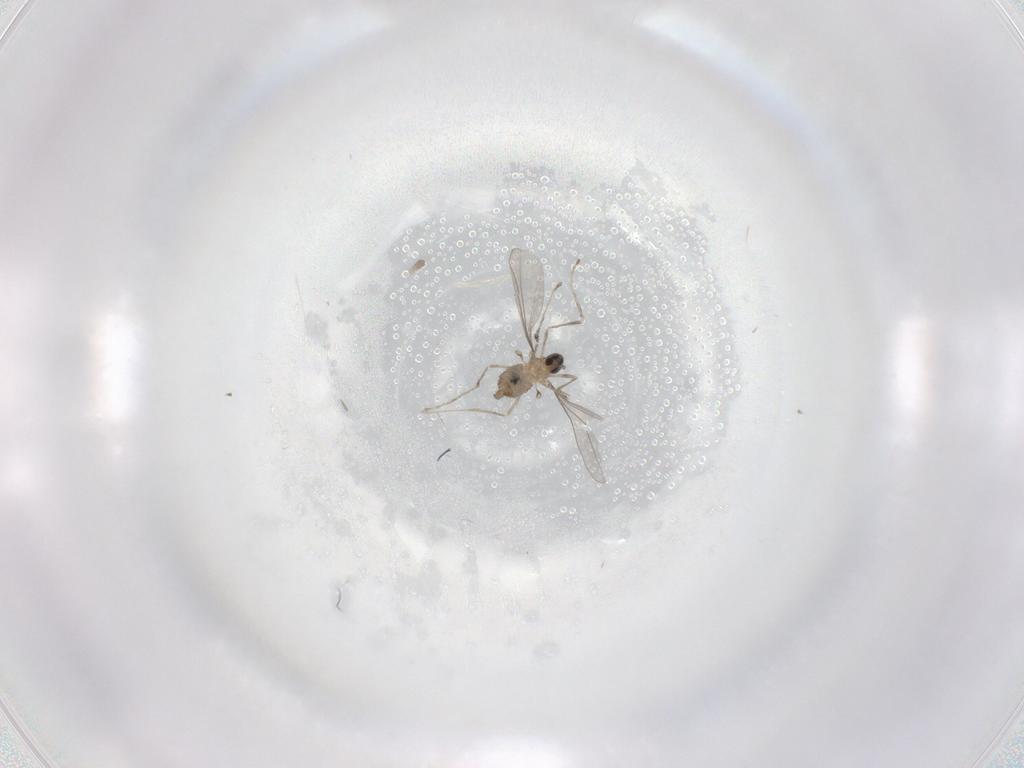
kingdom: Animalia
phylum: Arthropoda
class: Insecta
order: Diptera
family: Cecidomyiidae
